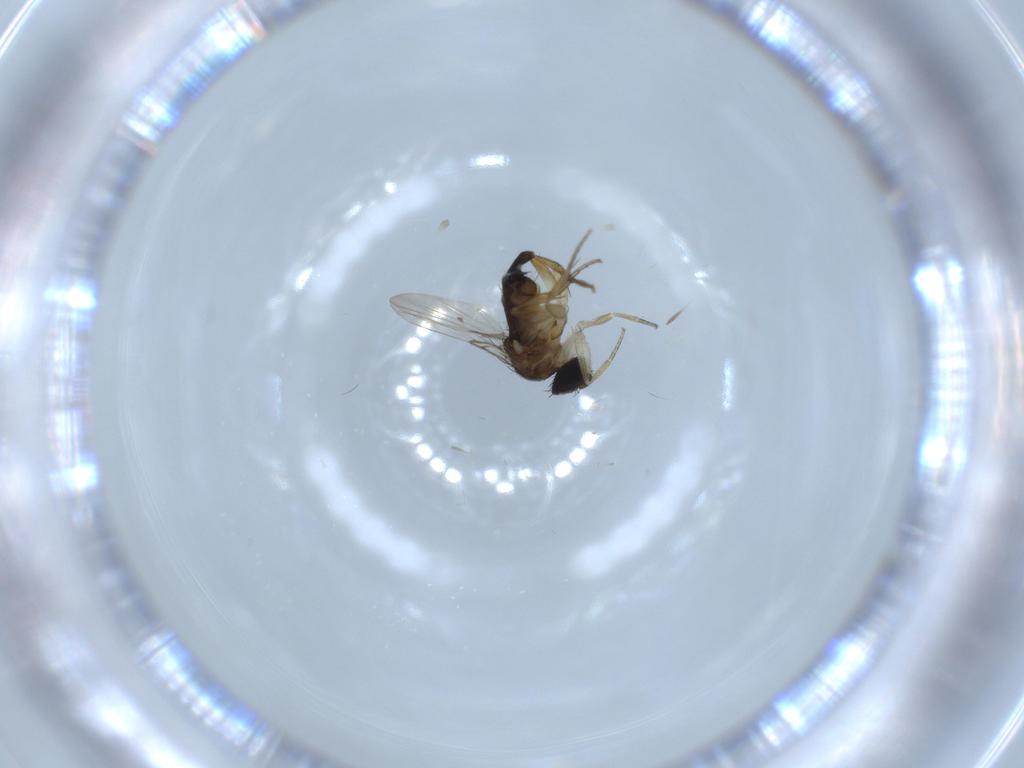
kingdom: Animalia
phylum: Arthropoda
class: Insecta
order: Diptera
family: Phoridae
